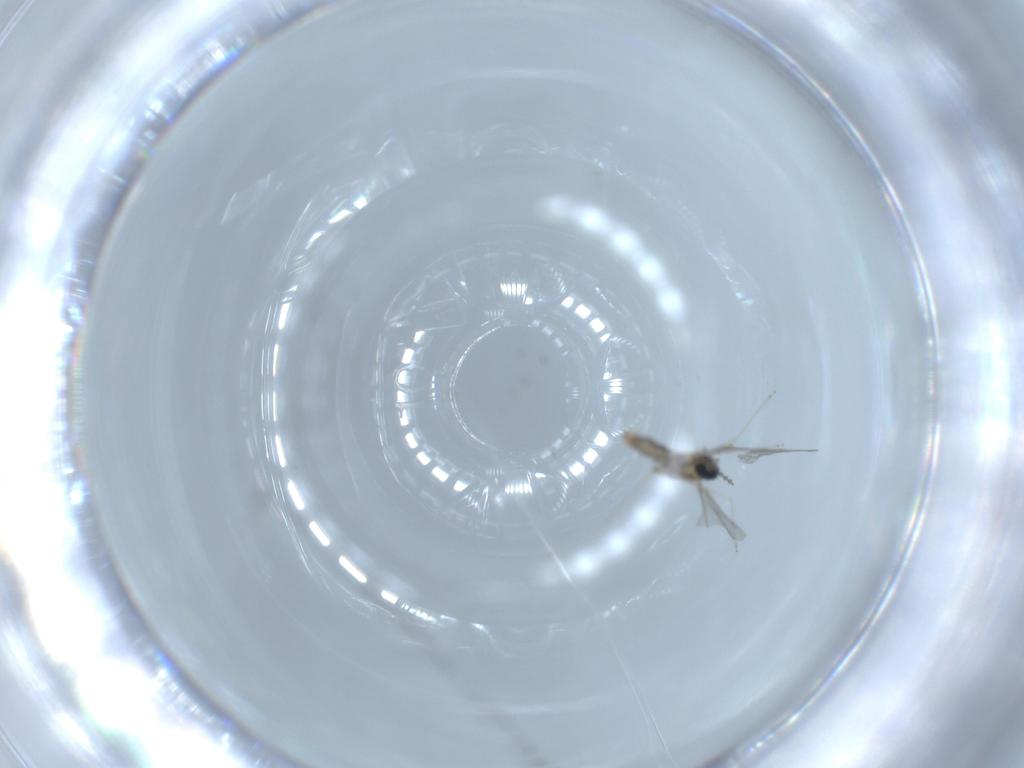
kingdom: Animalia
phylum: Arthropoda
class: Insecta
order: Diptera
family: Cecidomyiidae
